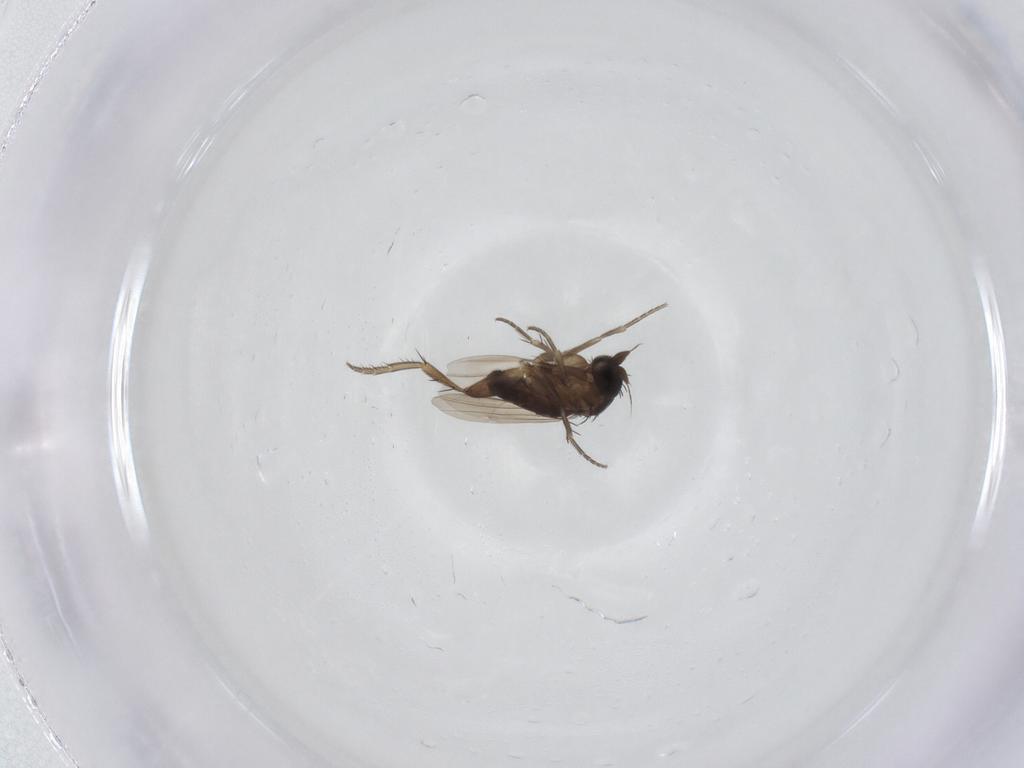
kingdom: Animalia
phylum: Arthropoda
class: Insecta
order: Diptera
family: Phoridae
